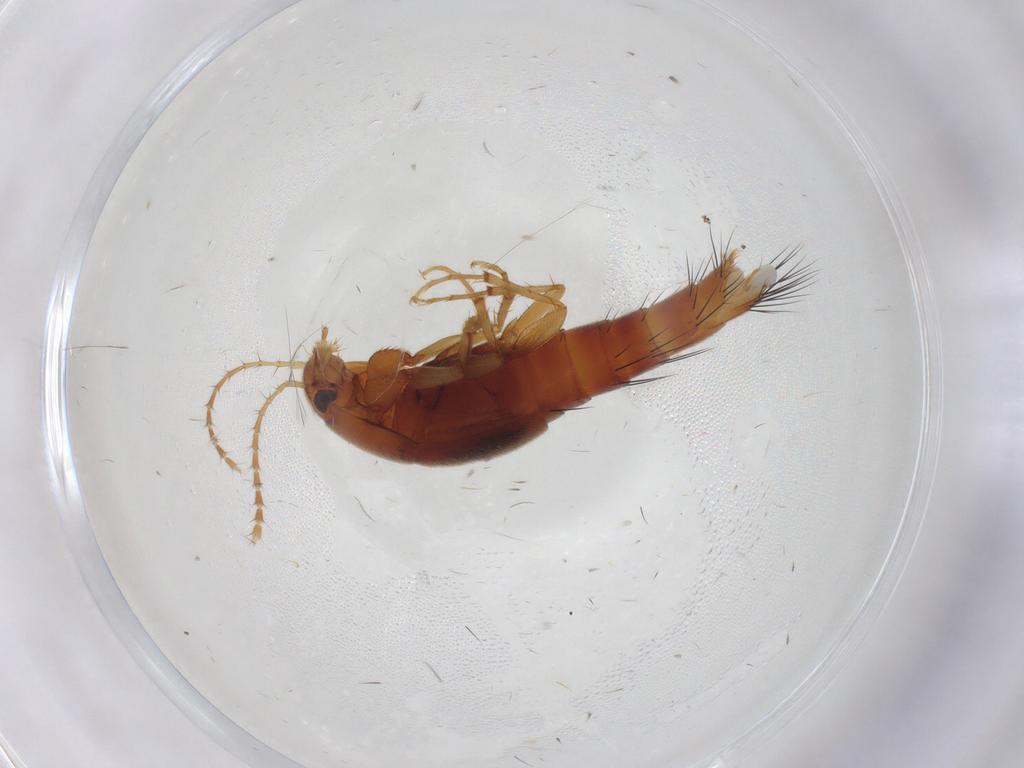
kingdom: Animalia
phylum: Arthropoda
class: Insecta
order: Coleoptera
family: Staphylinidae
